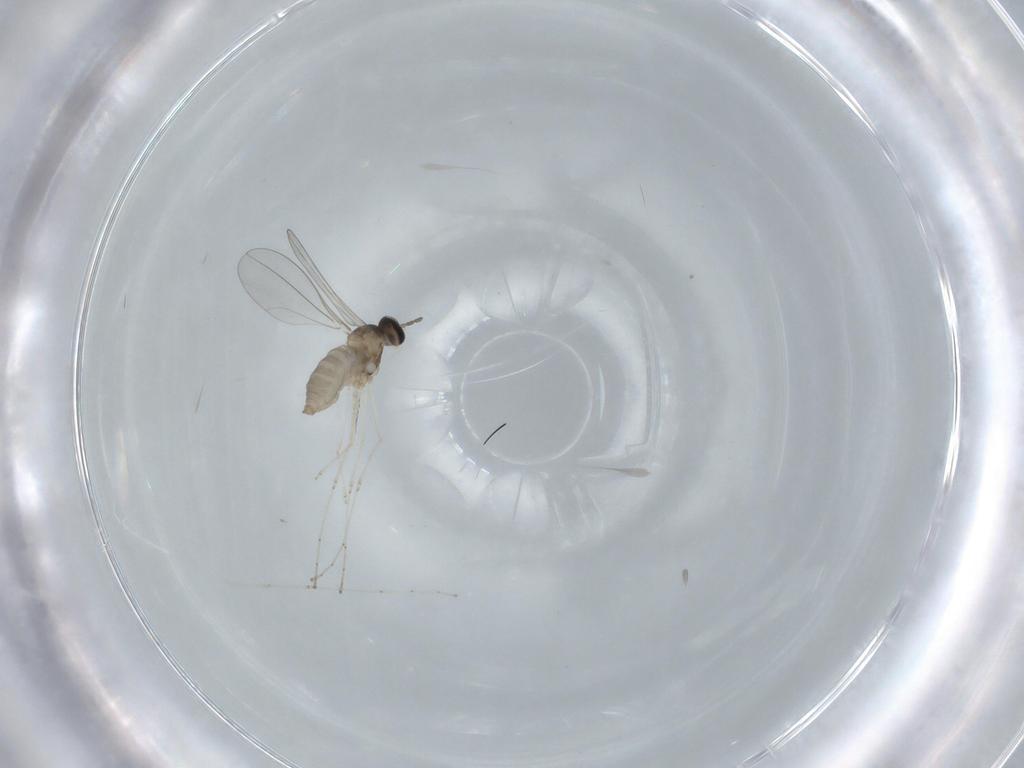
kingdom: Animalia
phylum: Arthropoda
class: Insecta
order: Diptera
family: Cecidomyiidae
